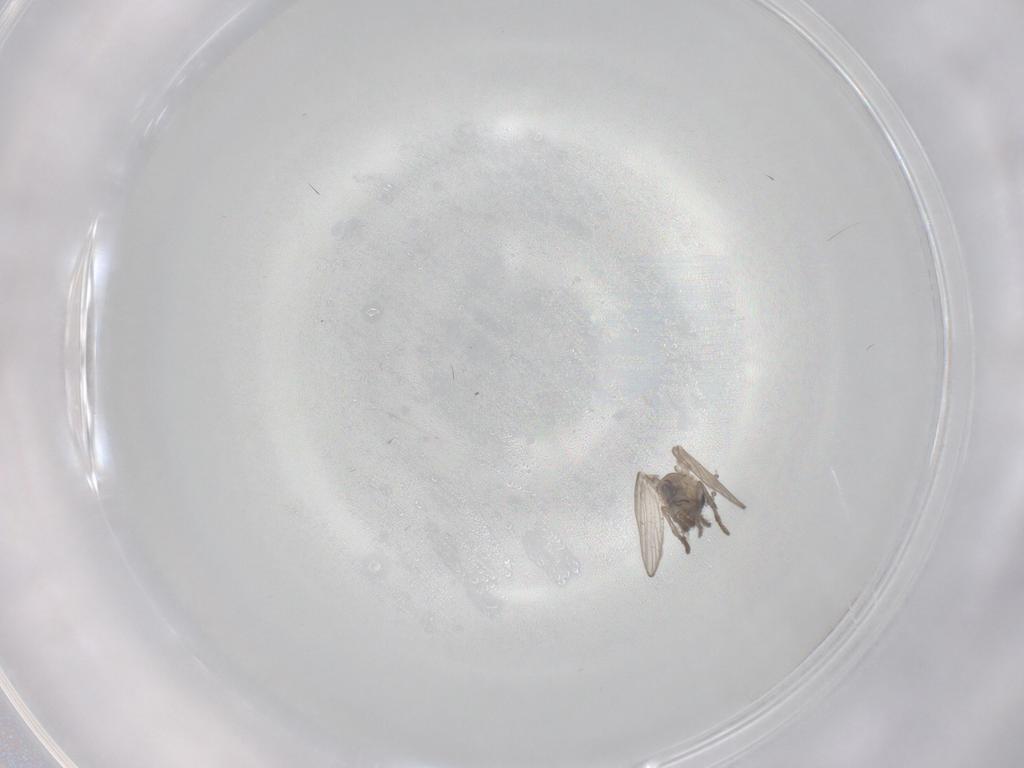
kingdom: Animalia
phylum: Arthropoda
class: Insecta
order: Diptera
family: Psychodidae
